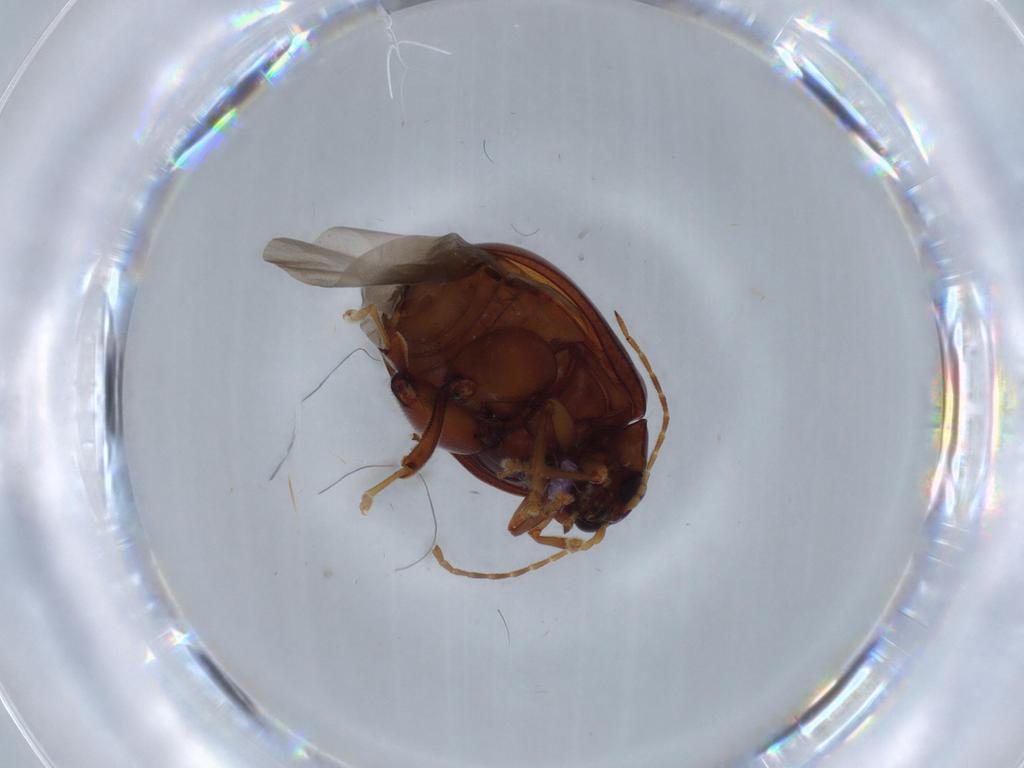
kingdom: Animalia
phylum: Arthropoda
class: Insecta
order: Coleoptera
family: Chrysomelidae
